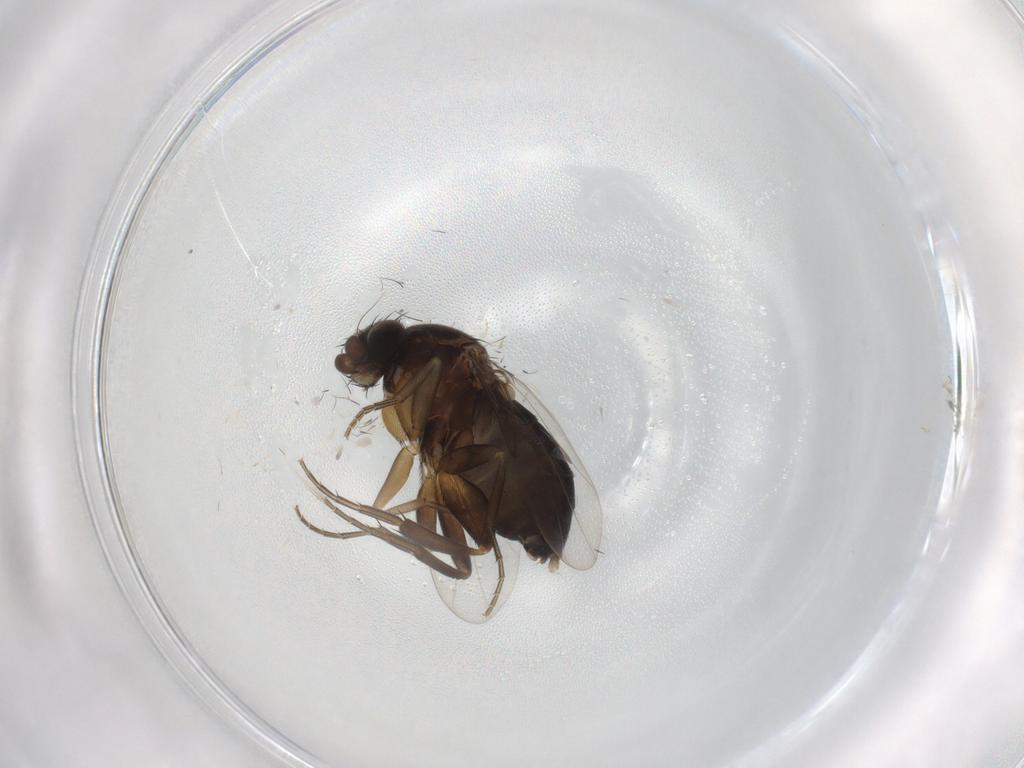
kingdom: Animalia
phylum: Arthropoda
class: Insecta
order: Diptera
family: Phoridae
